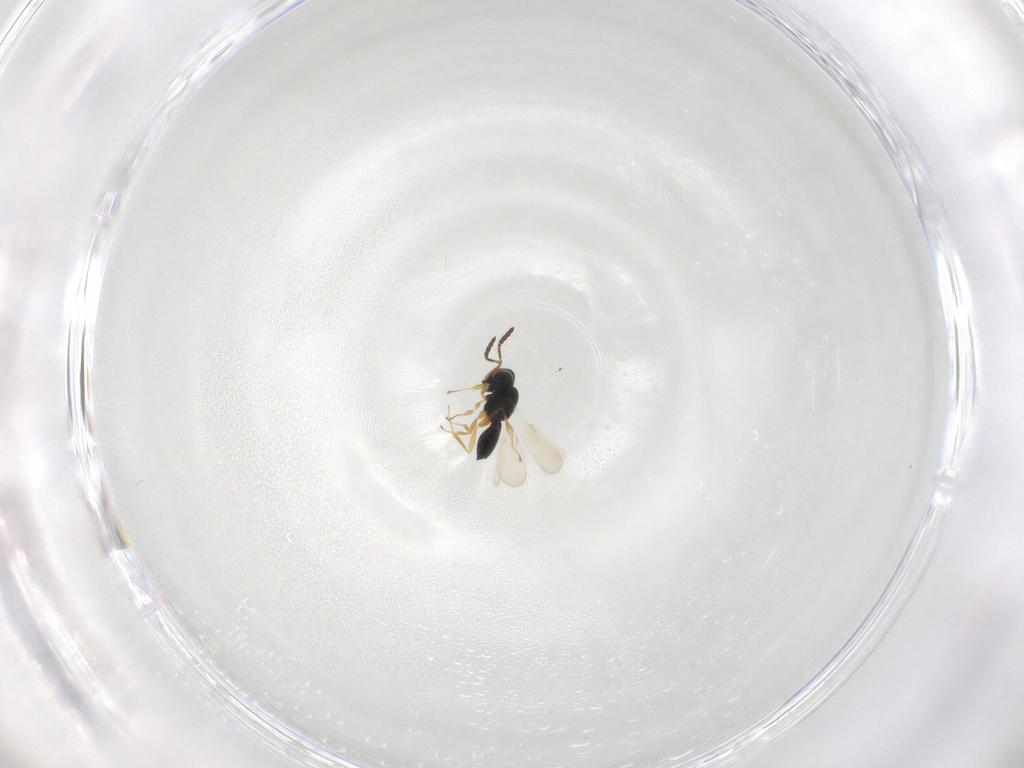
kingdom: Animalia
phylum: Arthropoda
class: Insecta
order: Hymenoptera
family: Scelionidae
